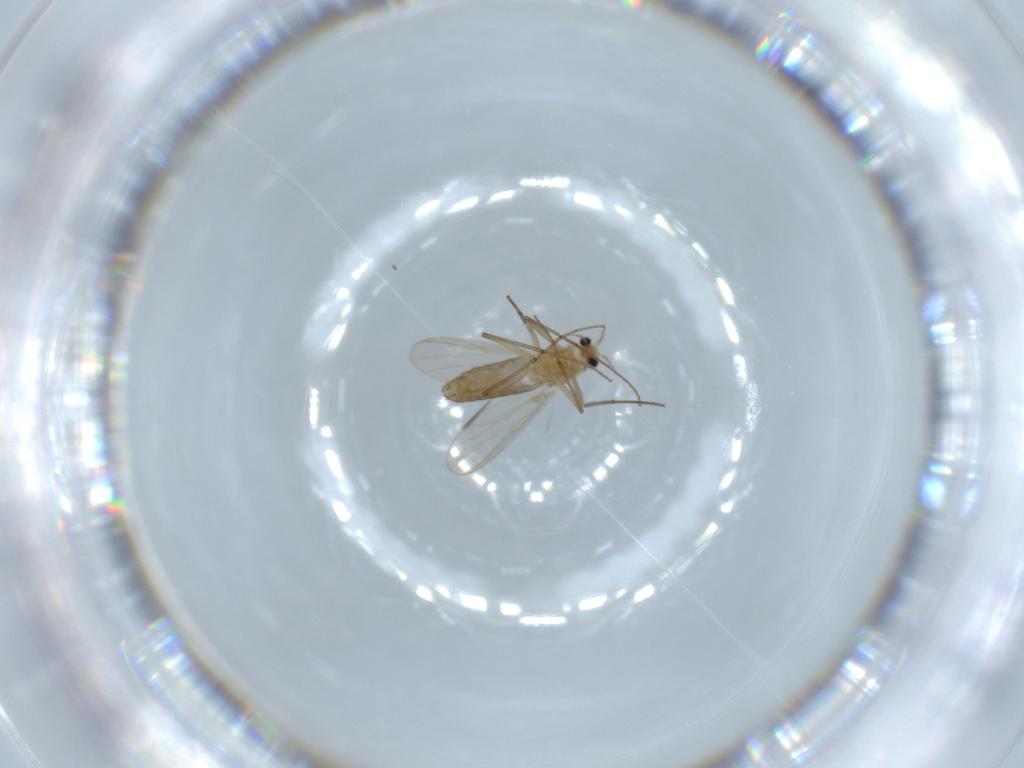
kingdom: Animalia
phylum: Arthropoda
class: Insecta
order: Diptera
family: Chironomidae
